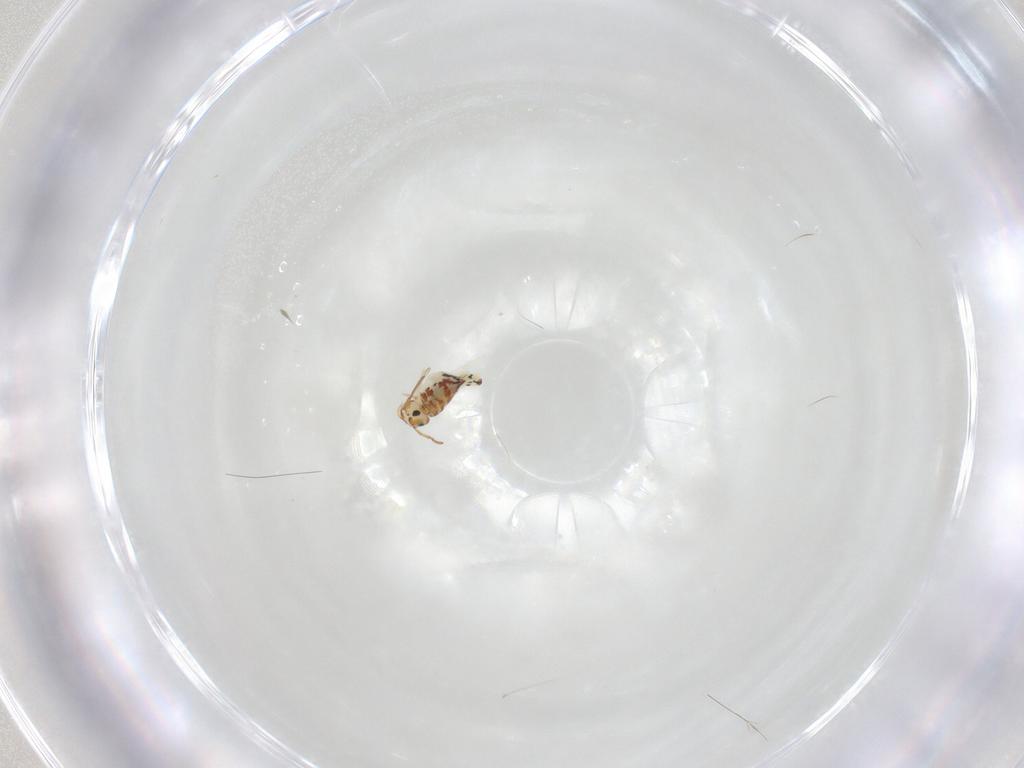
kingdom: Animalia
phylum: Arthropoda
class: Collembola
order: Symphypleona
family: Bourletiellidae
